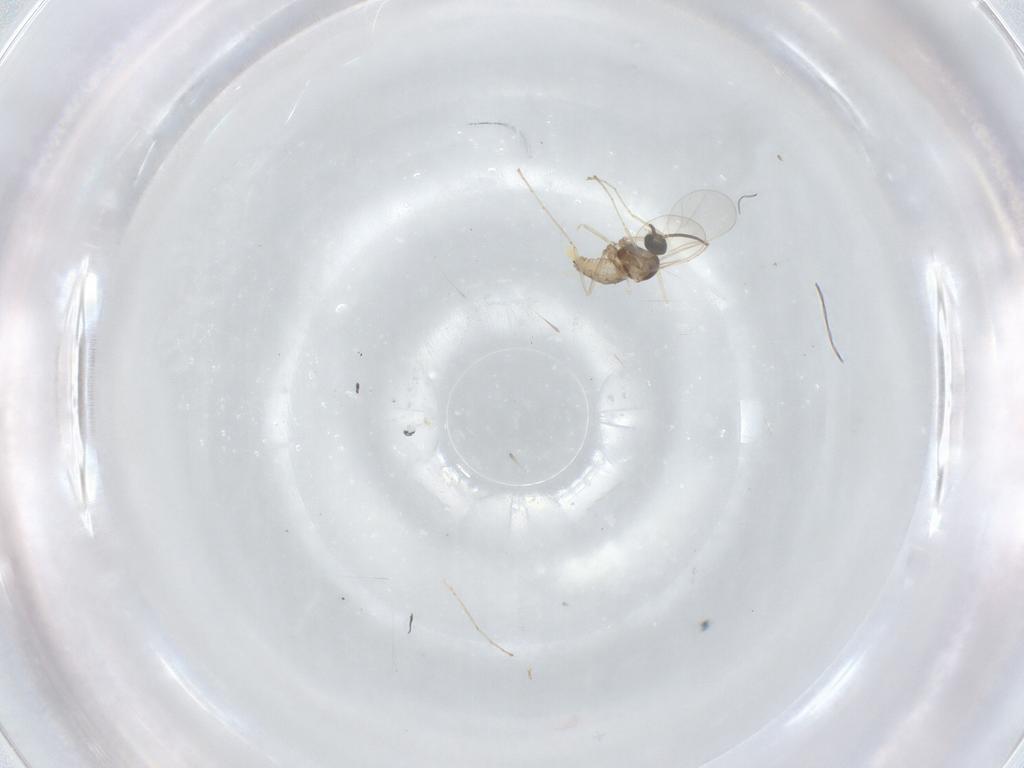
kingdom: Animalia
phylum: Arthropoda
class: Insecta
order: Diptera
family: Cecidomyiidae
